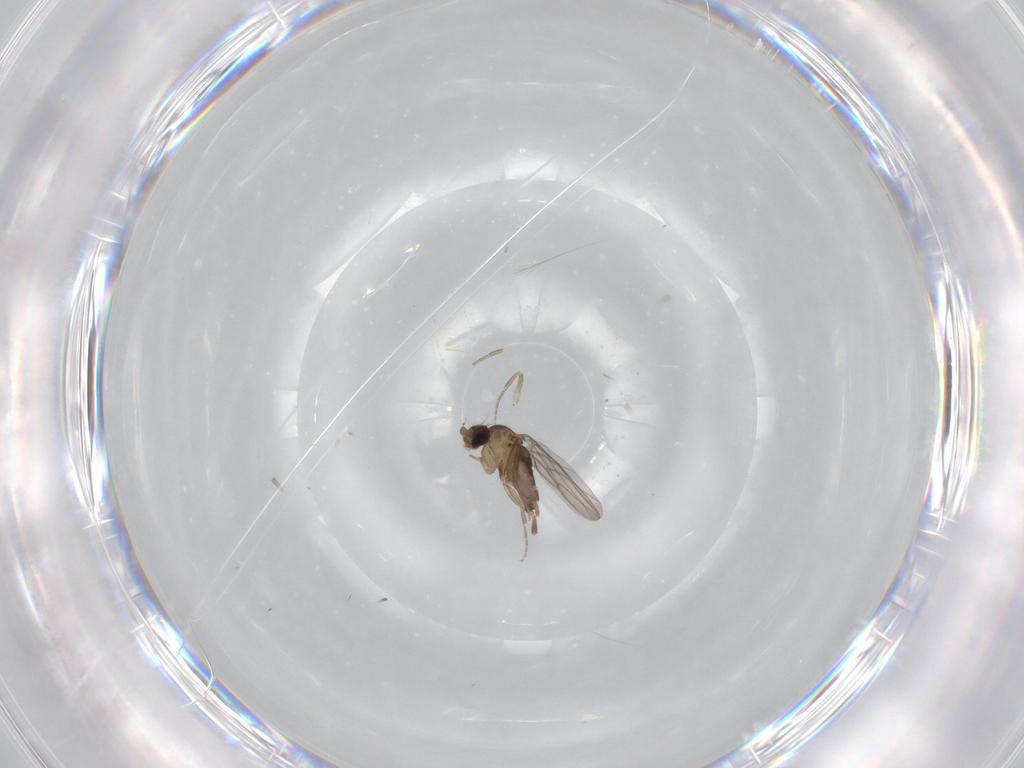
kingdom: Animalia
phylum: Arthropoda
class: Insecta
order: Diptera
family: Phoridae
